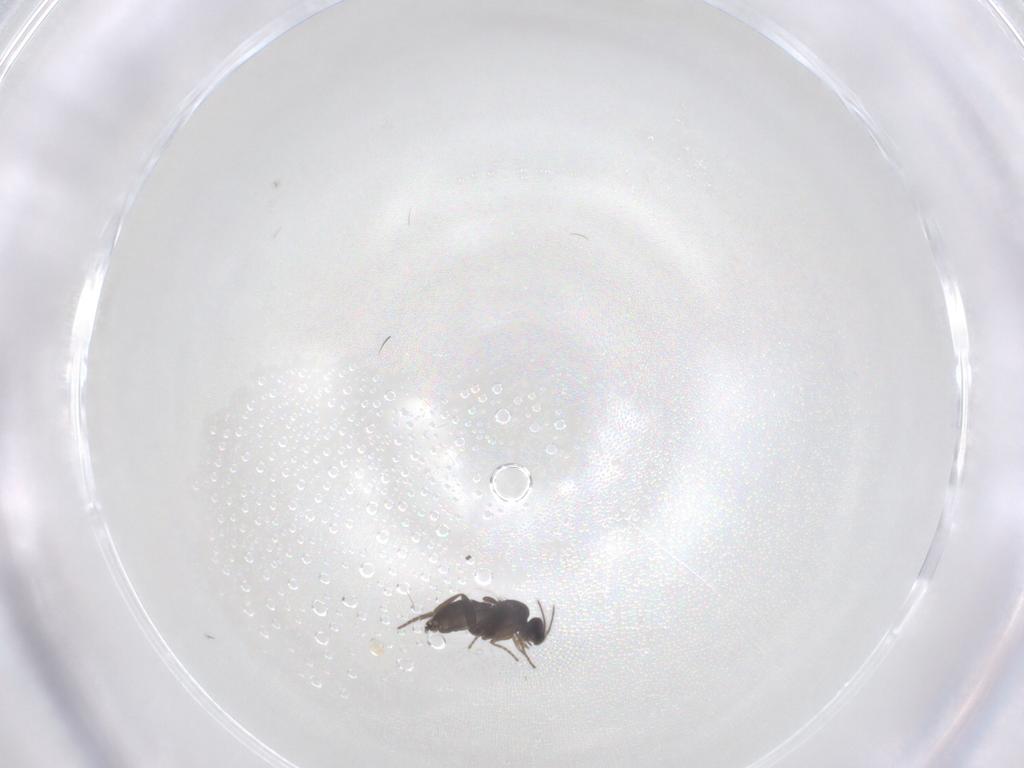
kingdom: Animalia
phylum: Arthropoda
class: Insecta
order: Diptera
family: Chironomidae
